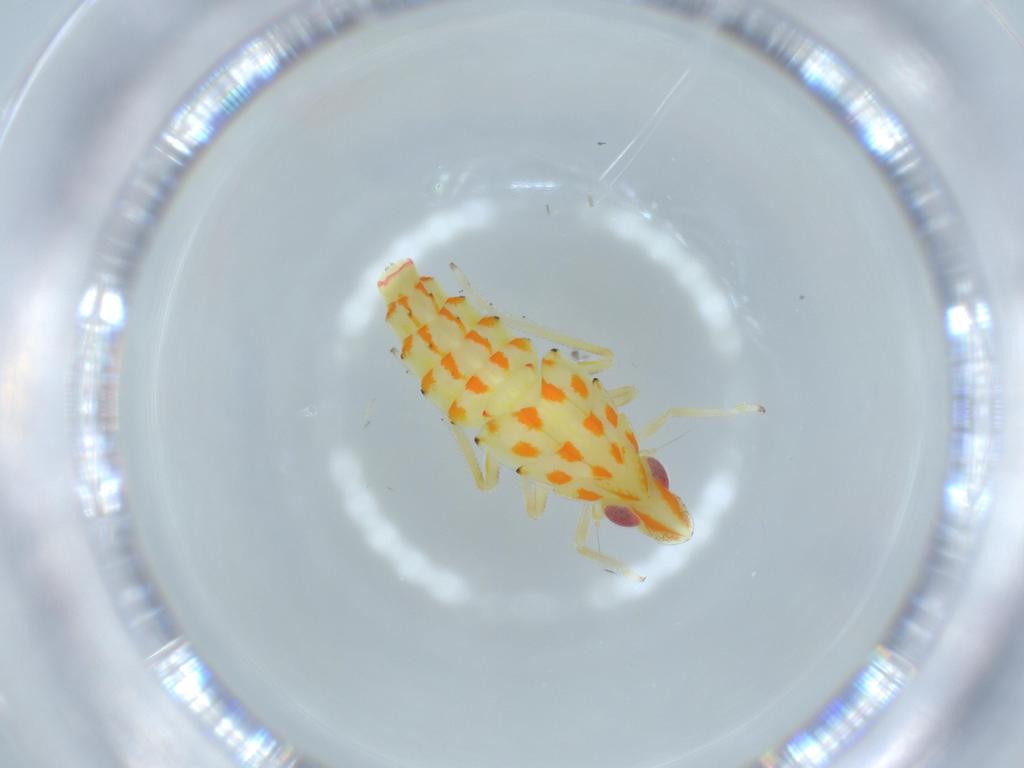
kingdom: Animalia
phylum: Arthropoda
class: Insecta
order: Hemiptera
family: Tropiduchidae
